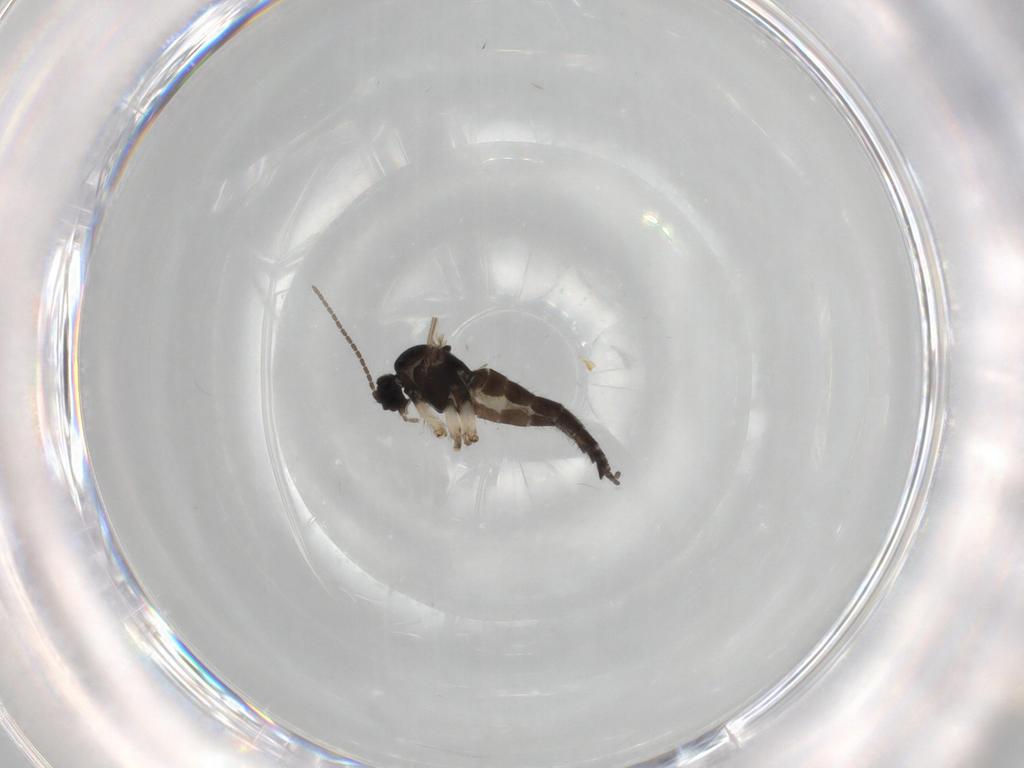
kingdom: Animalia
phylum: Arthropoda
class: Insecta
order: Diptera
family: Sciaridae
